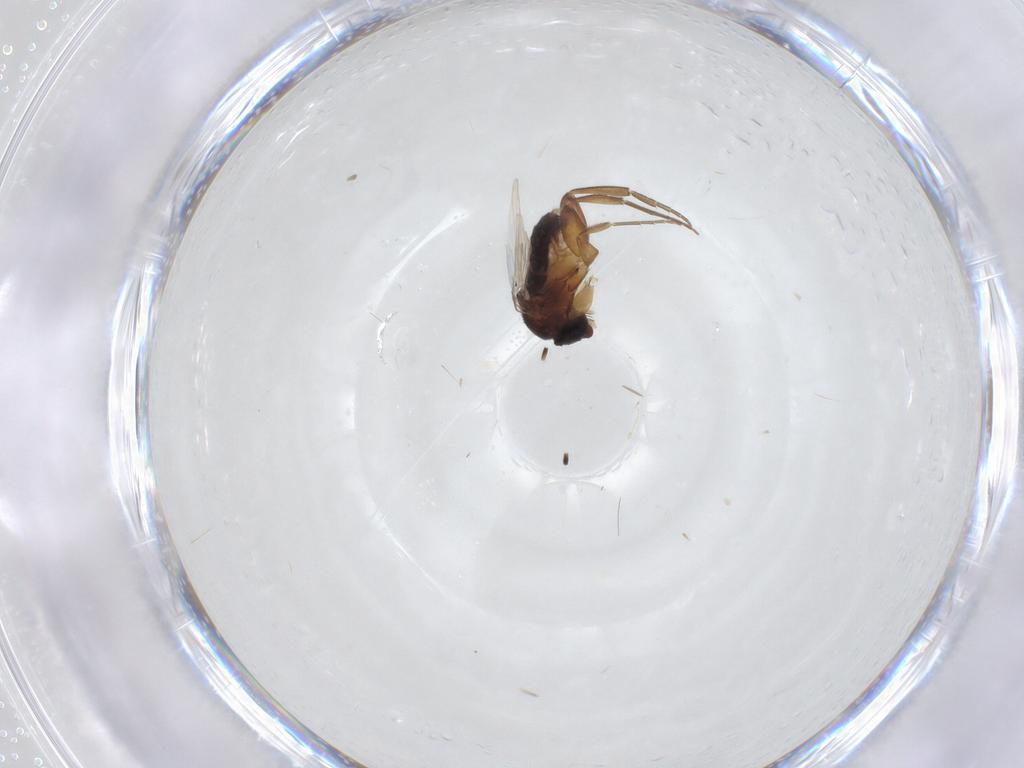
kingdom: Animalia
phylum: Arthropoda
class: Insecta
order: Diptera
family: Phoridae
